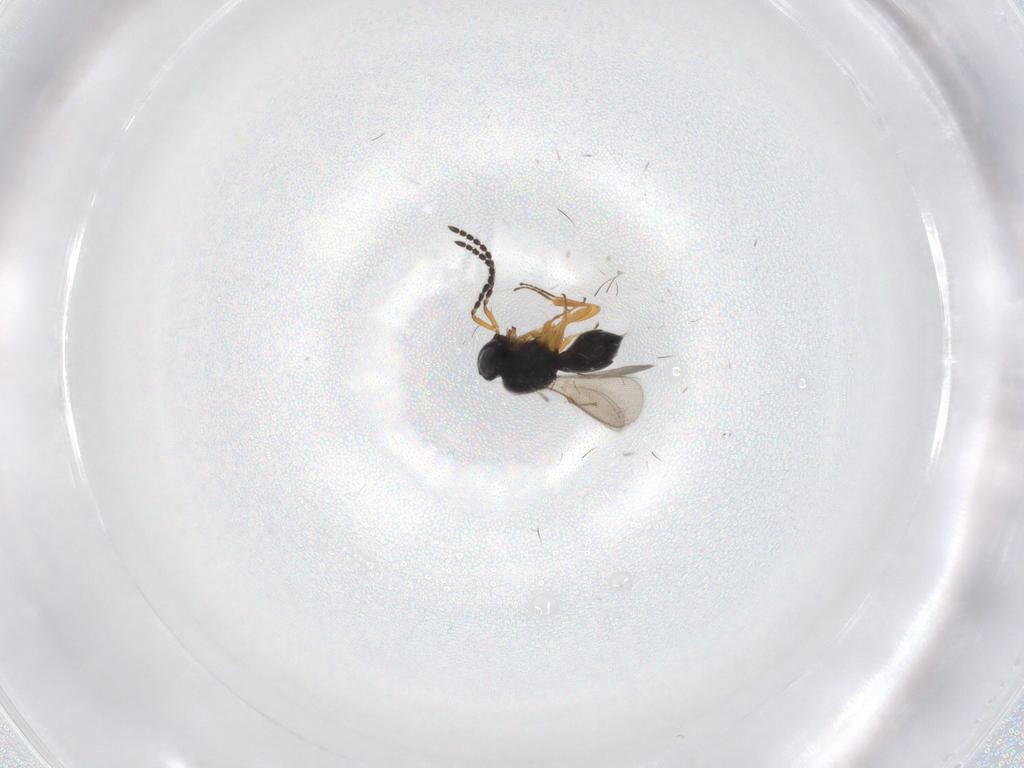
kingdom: Animalia
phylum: Arthropoda
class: Insecta
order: Hymenoptera
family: Scelionidae
